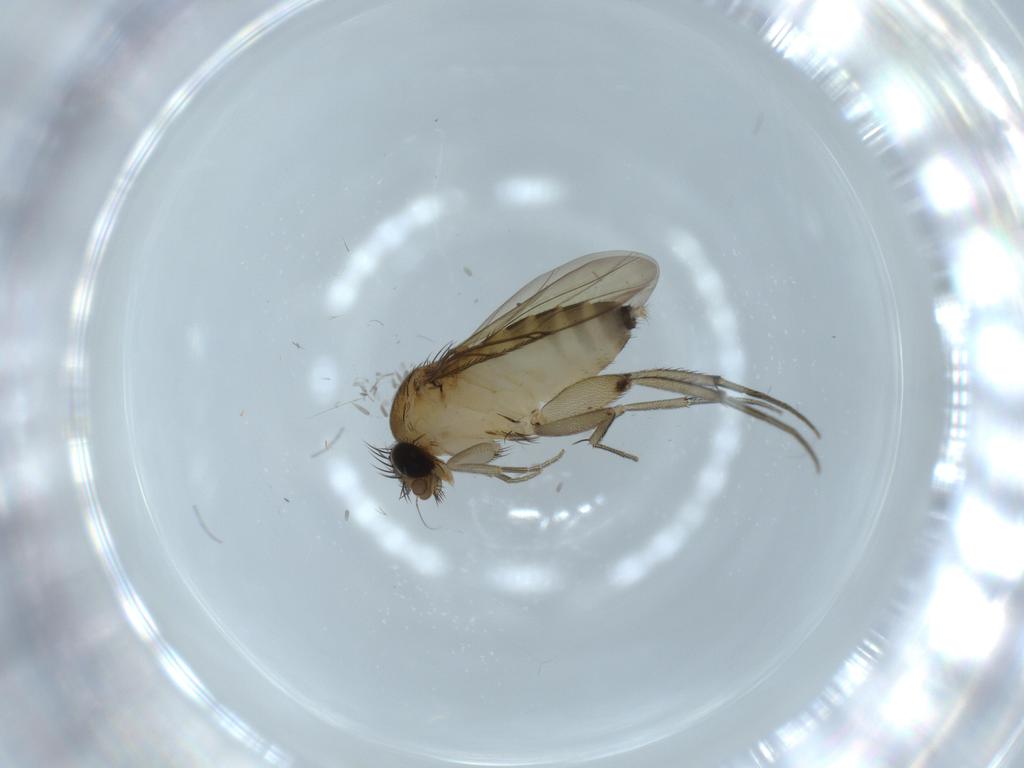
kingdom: Animalia
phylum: Arthropoda
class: Insecta
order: Diptera
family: Phoridae
